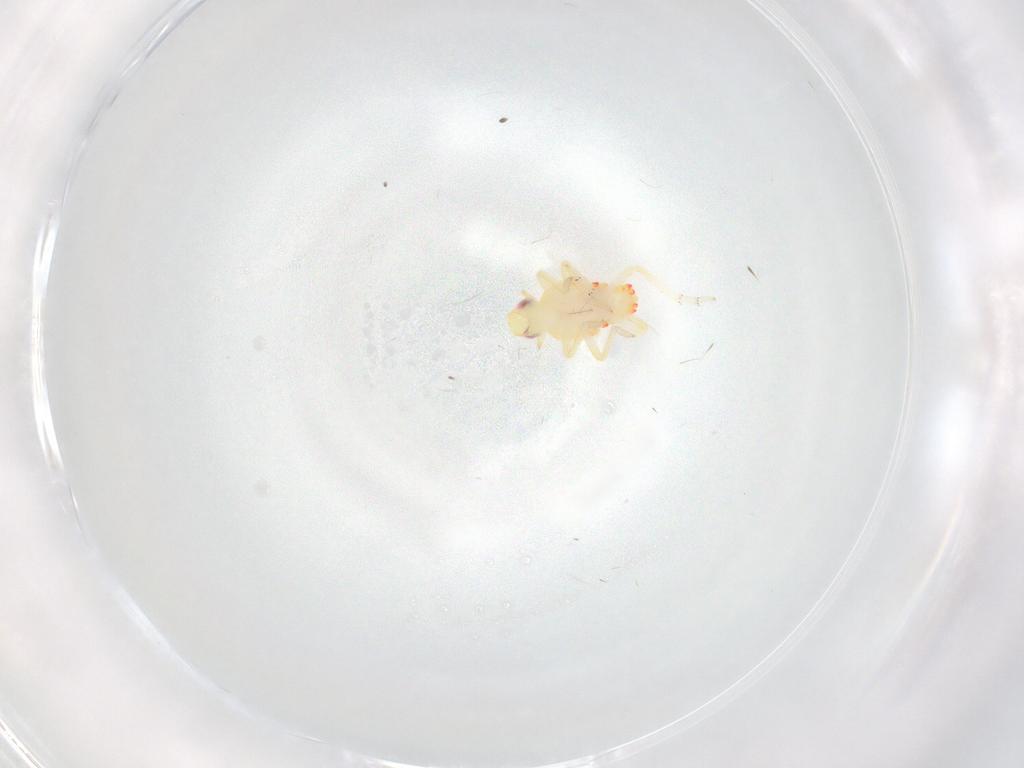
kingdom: Animalia
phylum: Arthropoda
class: Insecta
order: Hemiptera
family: Tropiduchidae
